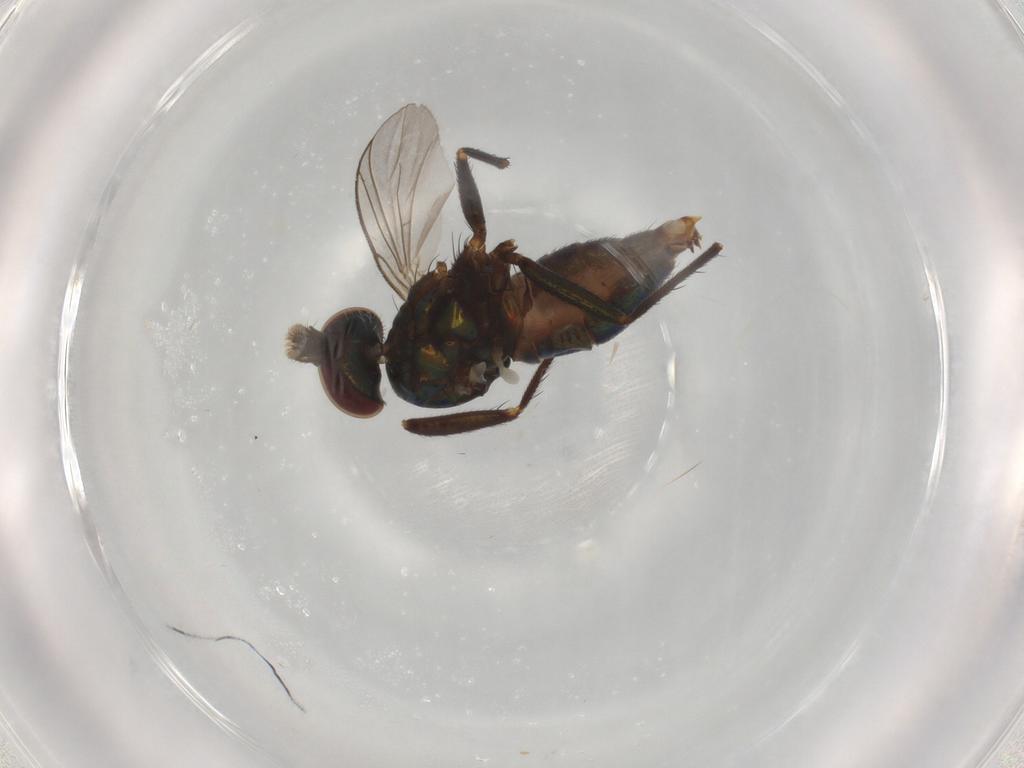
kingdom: Animalia
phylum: Arthropoda
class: Insecta
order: Diptera
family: Dolichopodidae
